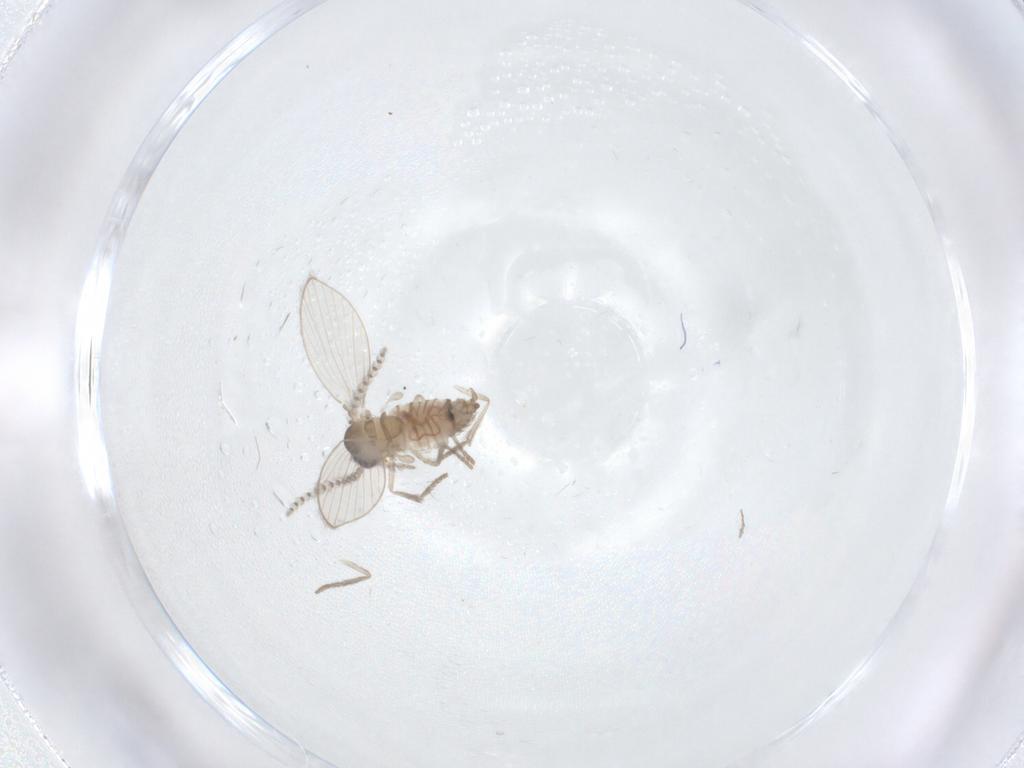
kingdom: Animalia
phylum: Arthropoda
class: Insecta
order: Diptera
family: Psychodidae
